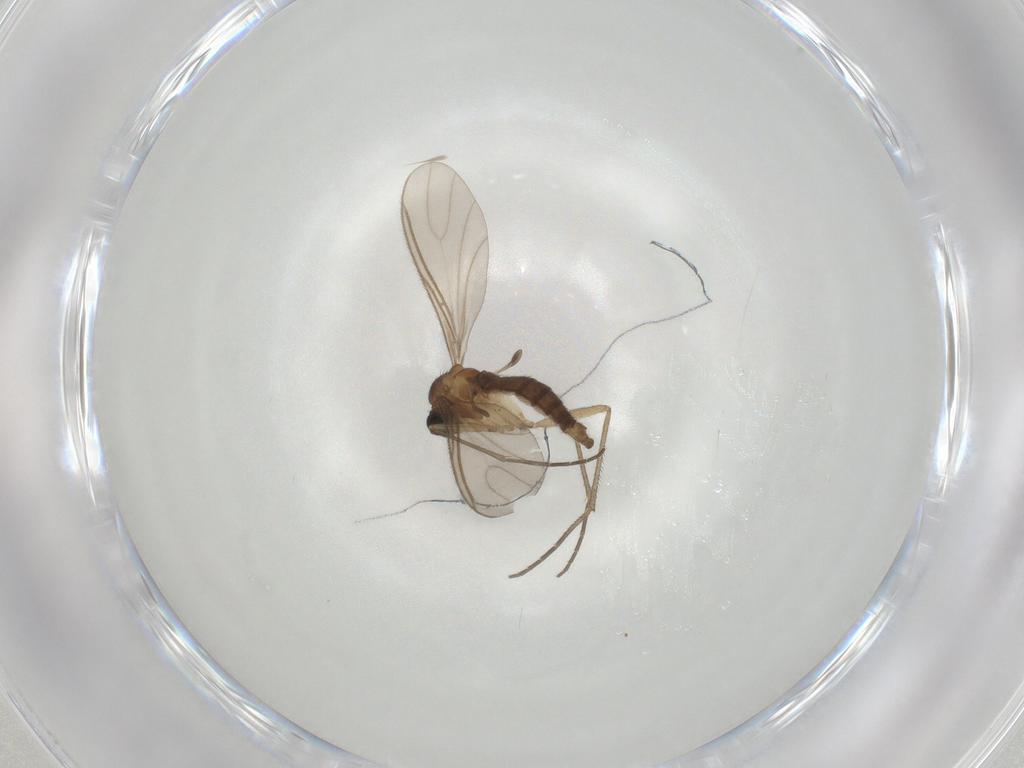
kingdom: Animalia
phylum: Arthropoda
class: Insecta
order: Diptera
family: Sciaridae
